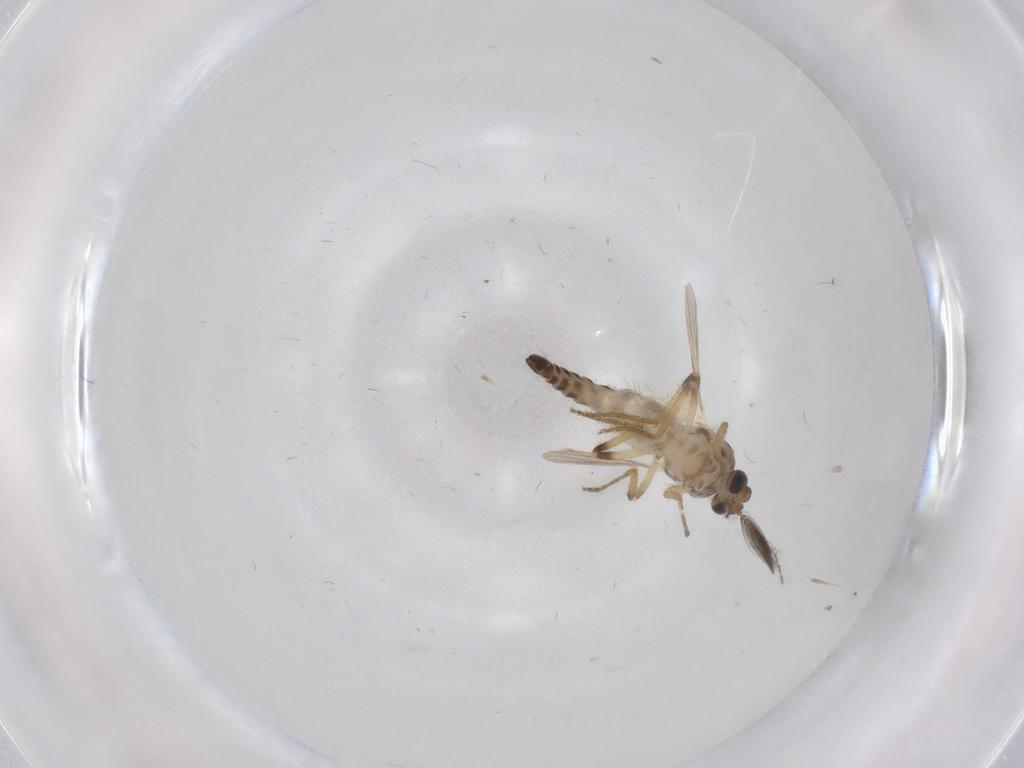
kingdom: Animalia
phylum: Arthropoda
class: Insecta
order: Diptera
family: Ceratopogonidae
